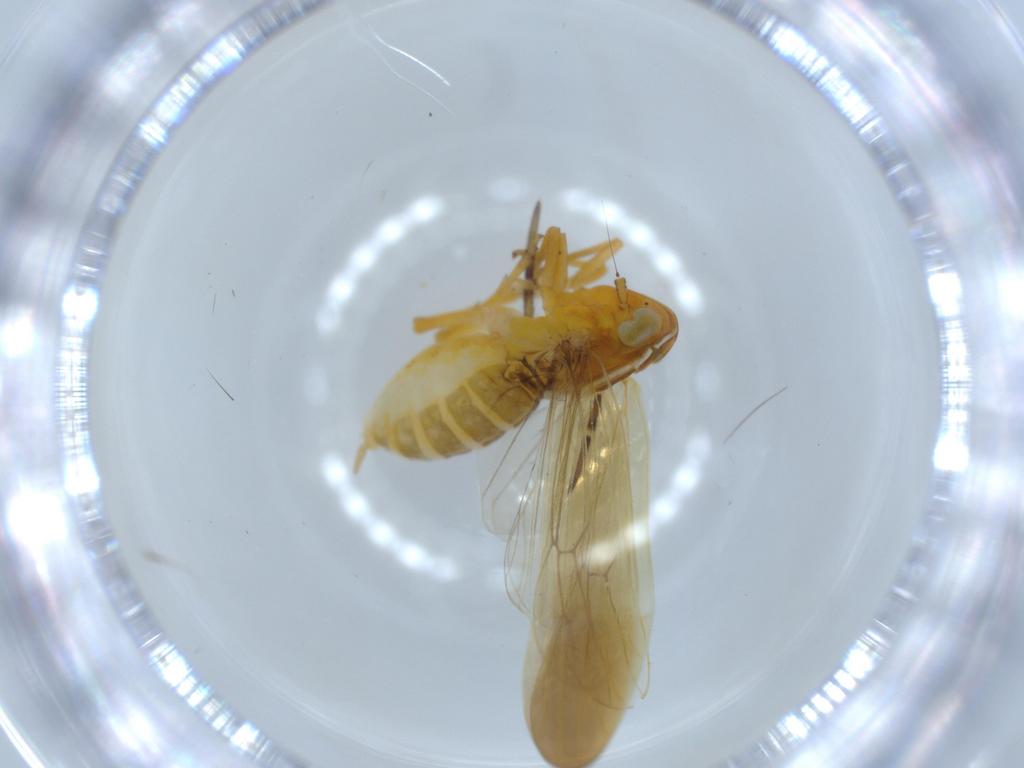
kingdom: Animalia
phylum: Arthropoda
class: Insecta
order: Hemiptera
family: Delphacidae
